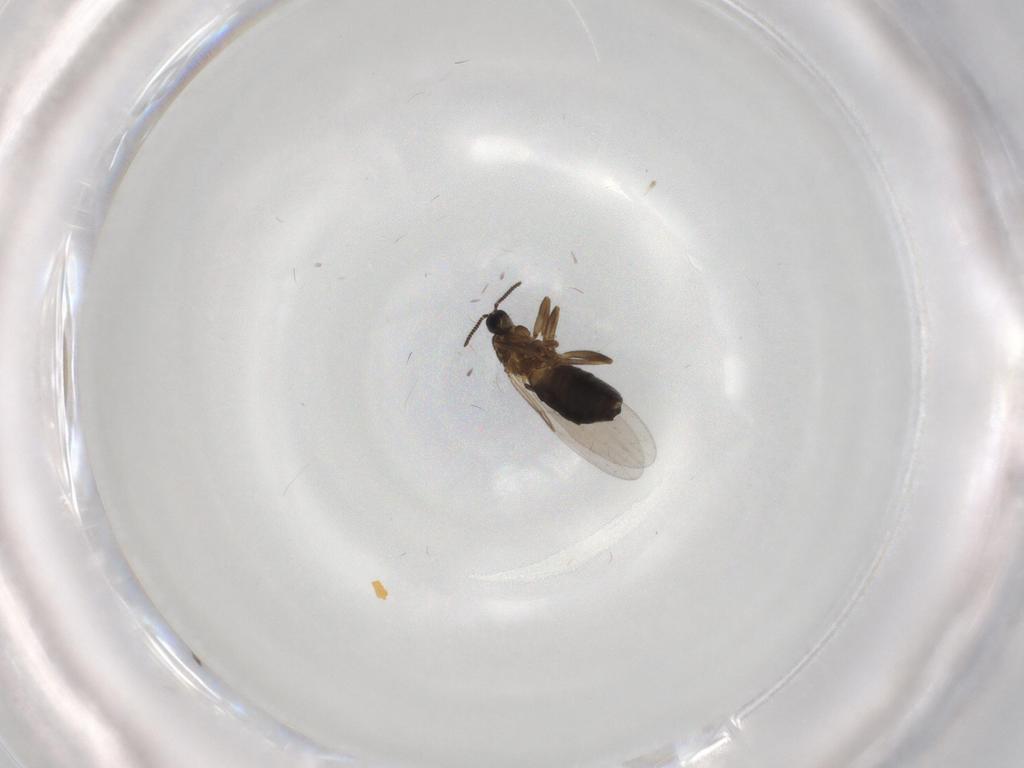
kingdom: Animalia
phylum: Arthropoda
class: Insecta
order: Diptera
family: Scatopsidae
